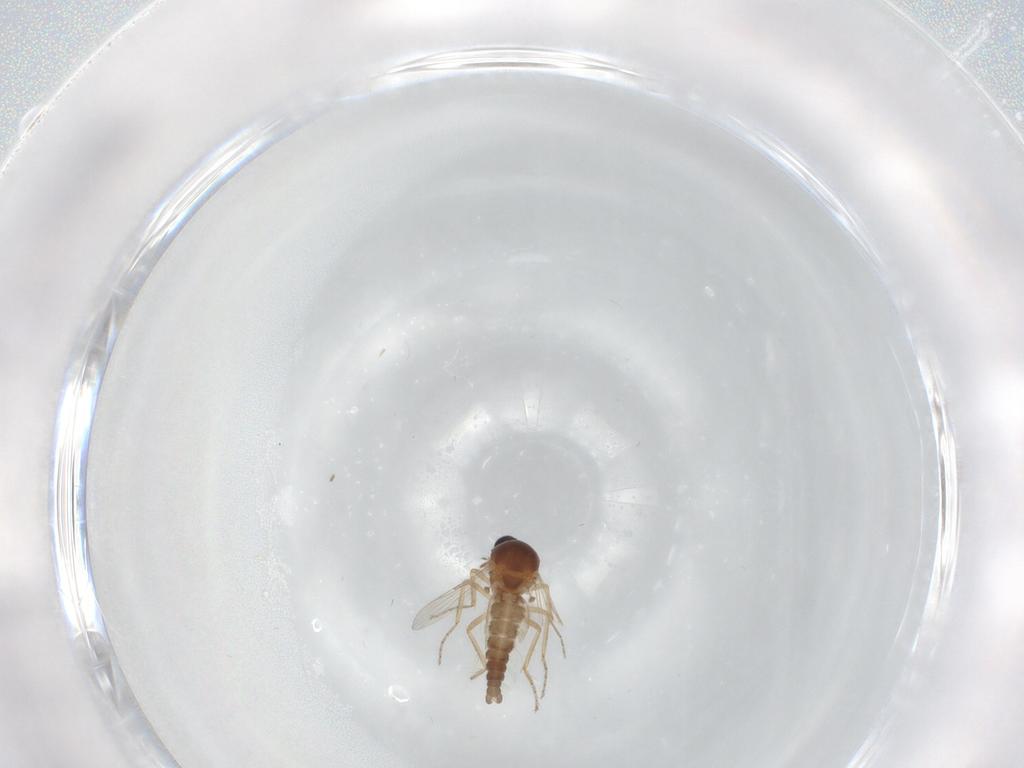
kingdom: Animalia
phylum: Arthropoda
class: Insecta
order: Diptera
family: Ceratopogonidae
